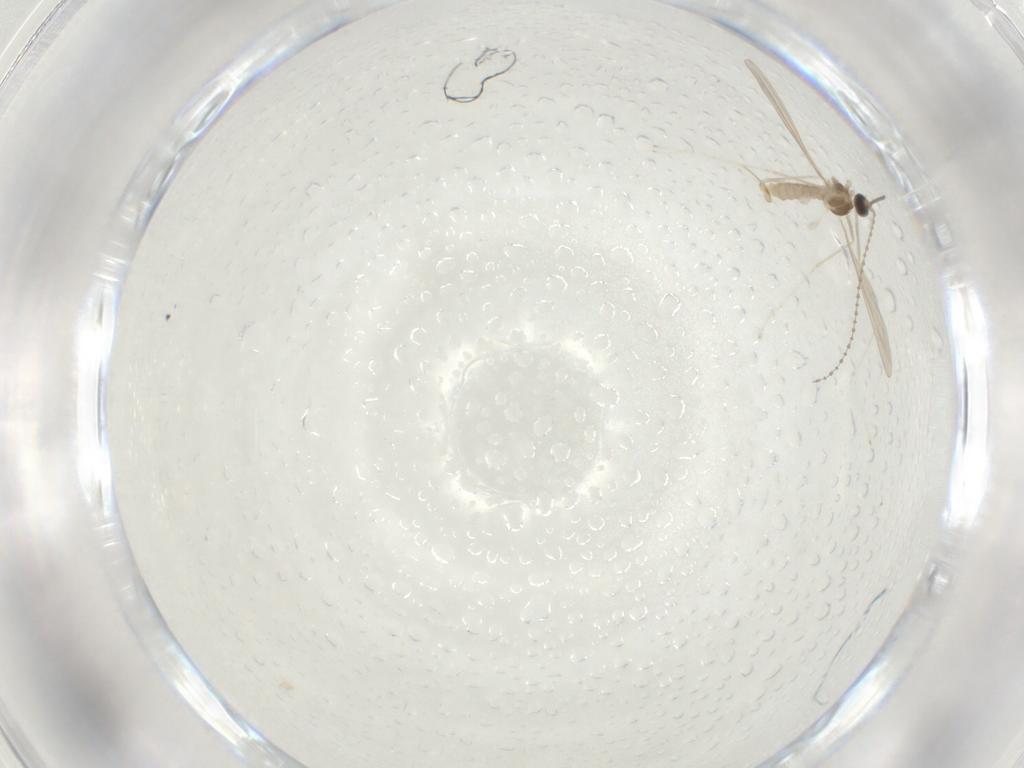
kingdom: Animalia
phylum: Arthropoda
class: Insecta
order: Diptera
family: Cecidomyiidae
